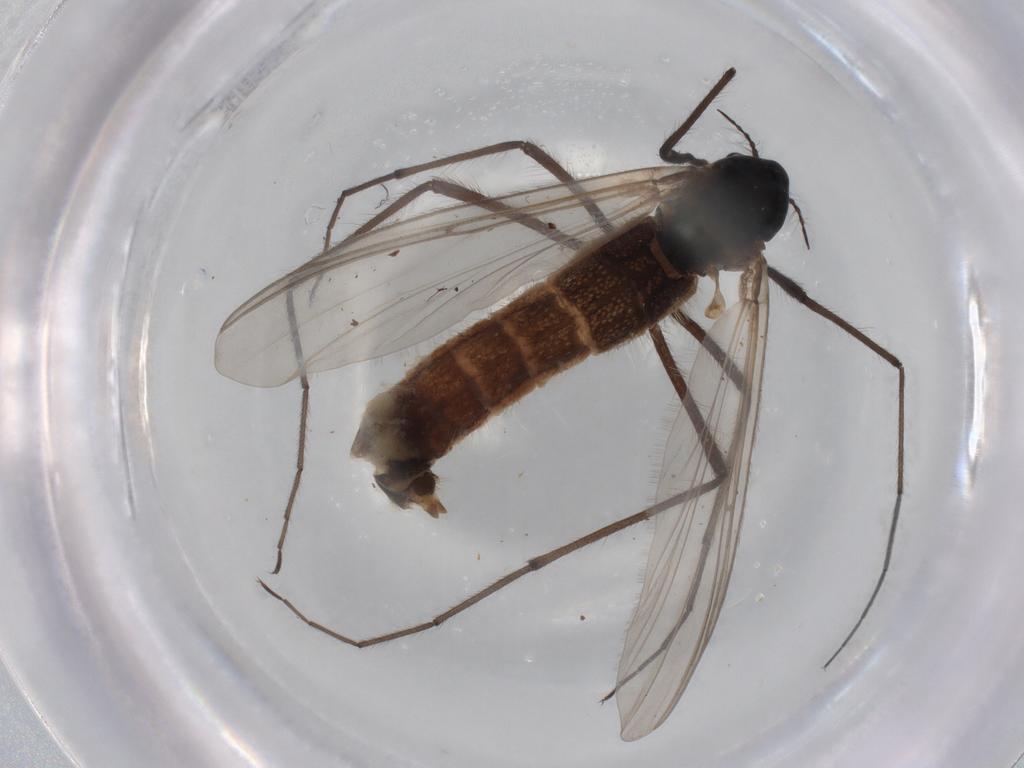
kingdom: Animalia
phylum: Arthropoda
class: Insecta
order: Diptera
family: Chironomidae
